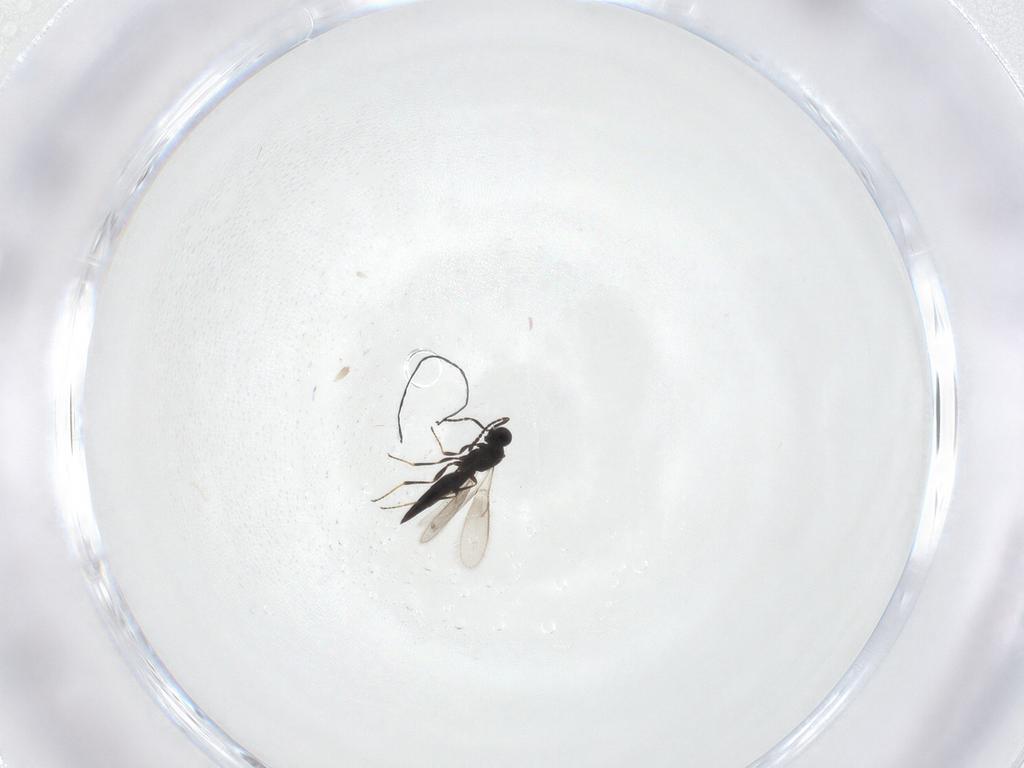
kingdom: Animalia
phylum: Arthropoda
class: Insecta
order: Hymenoptera
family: Scelionidae
